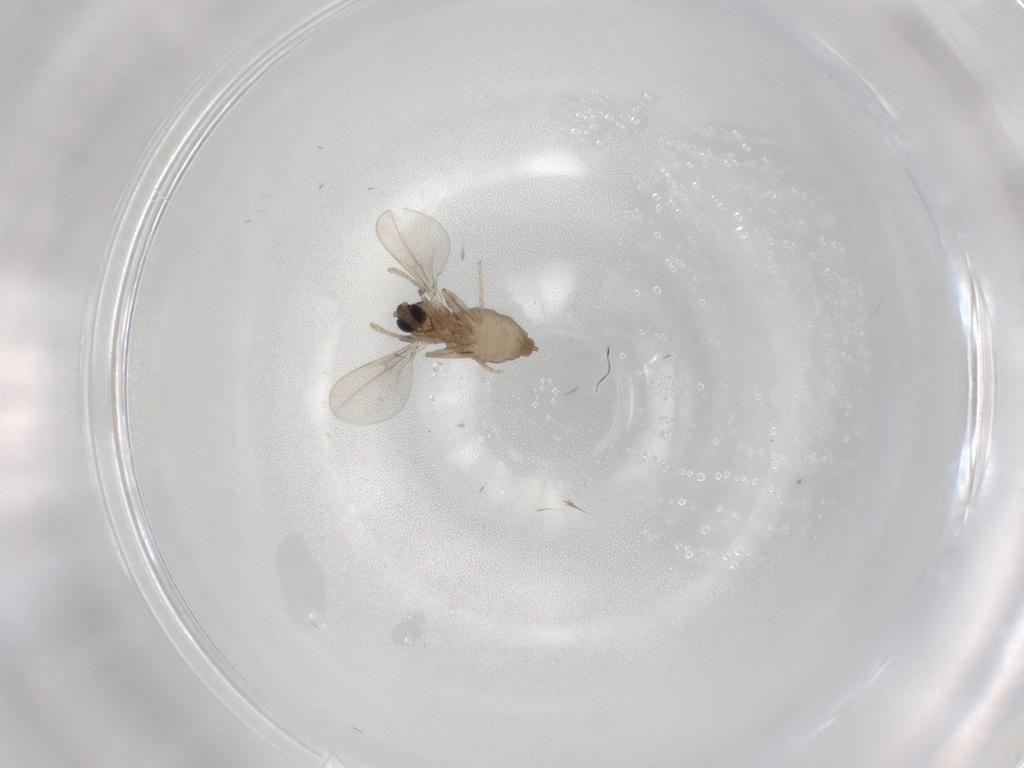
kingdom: Animalia
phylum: Arthropoda
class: Insecta
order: Diptera
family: Cecidomyiidae
